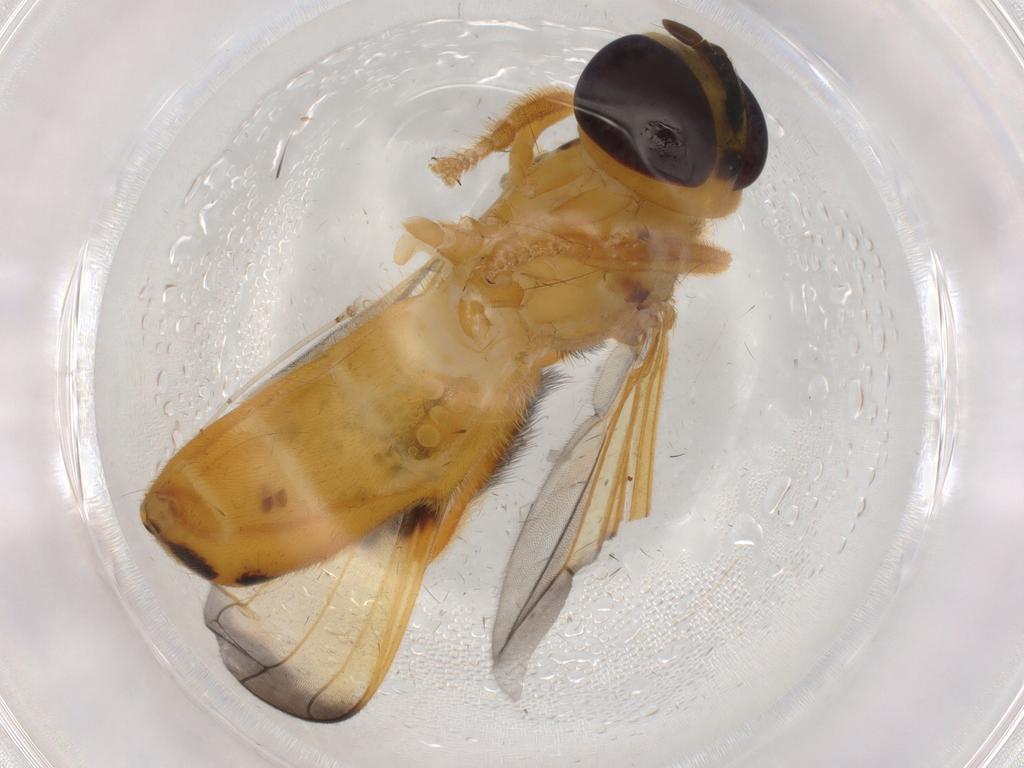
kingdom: Animalia
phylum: Arthropoda
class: Insecta
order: Diptera
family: Syrphidae
